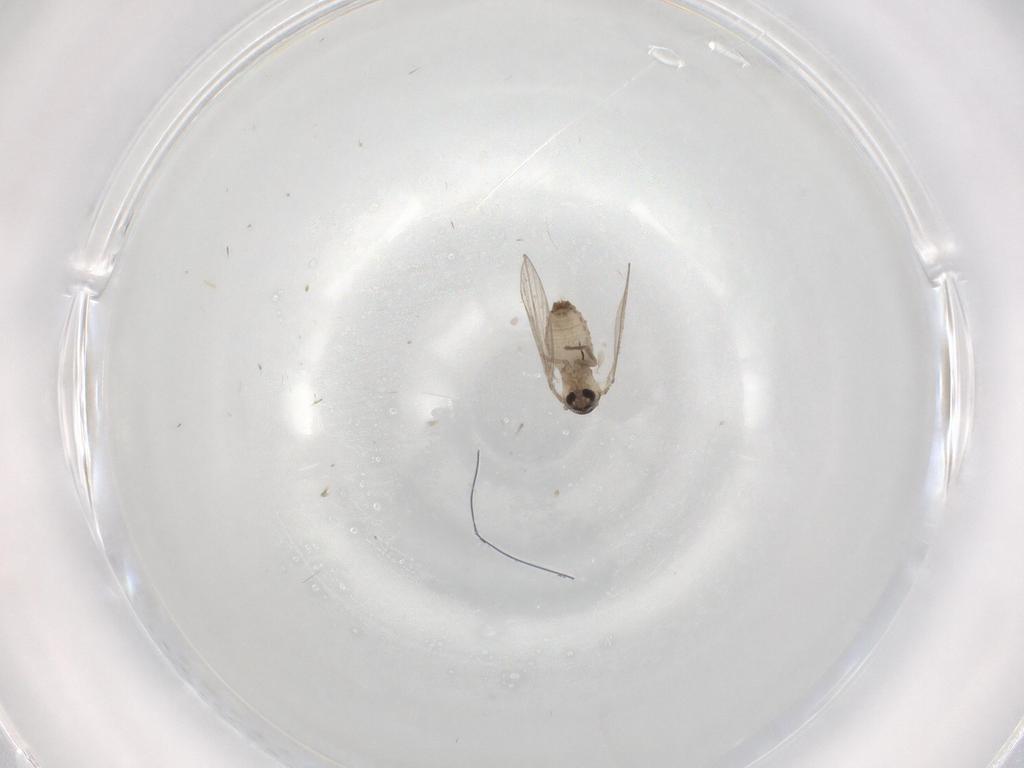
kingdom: Animalia
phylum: Arthropoda
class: Insecta
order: Diptera
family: Psychodidae
